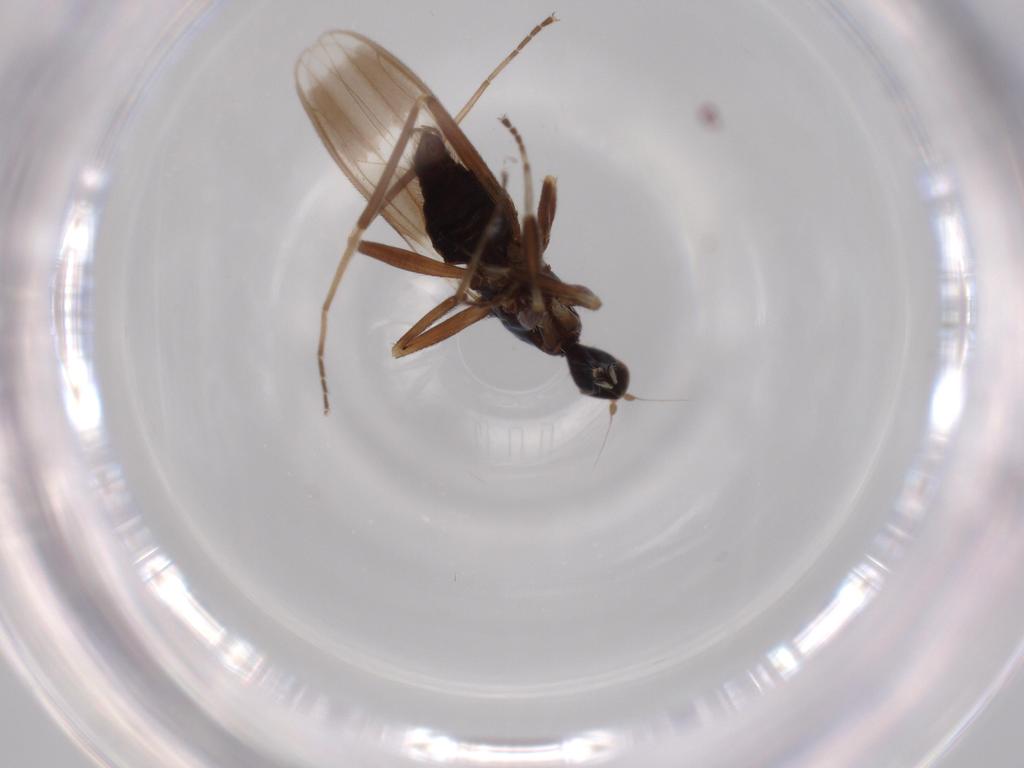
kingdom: Animalia
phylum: Arthropoda
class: Insecta
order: Diptera
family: Hybotidae
